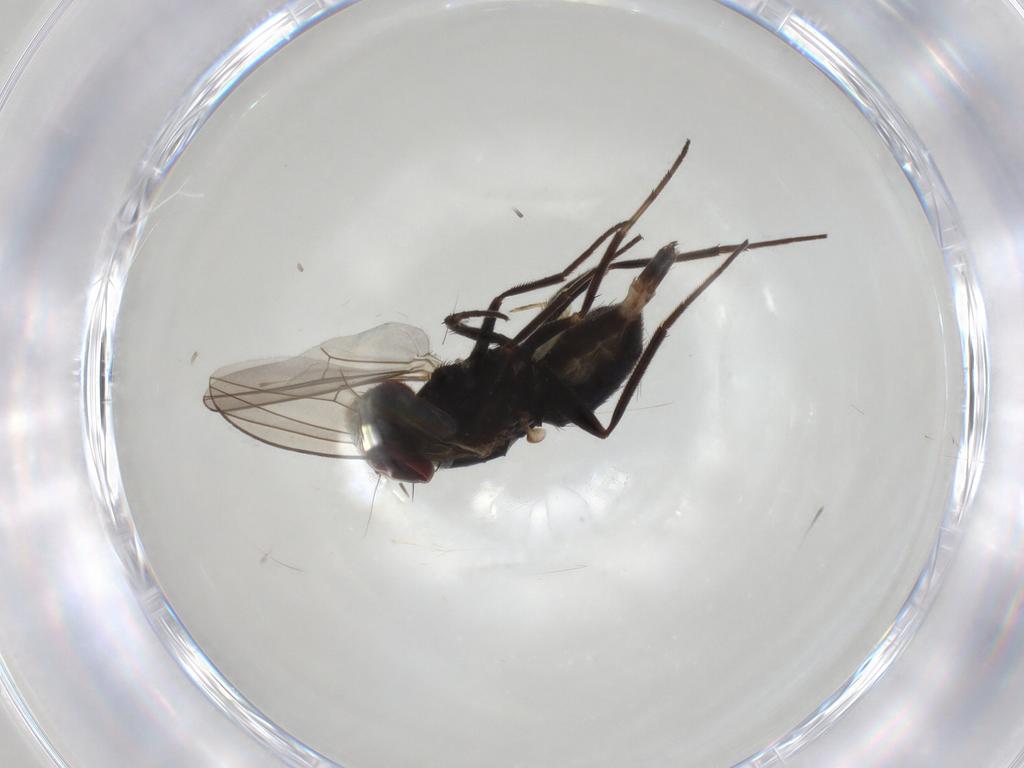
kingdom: Animalia
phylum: Arthropoda
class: Insecta
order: Diptera
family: Dolichopodidae
